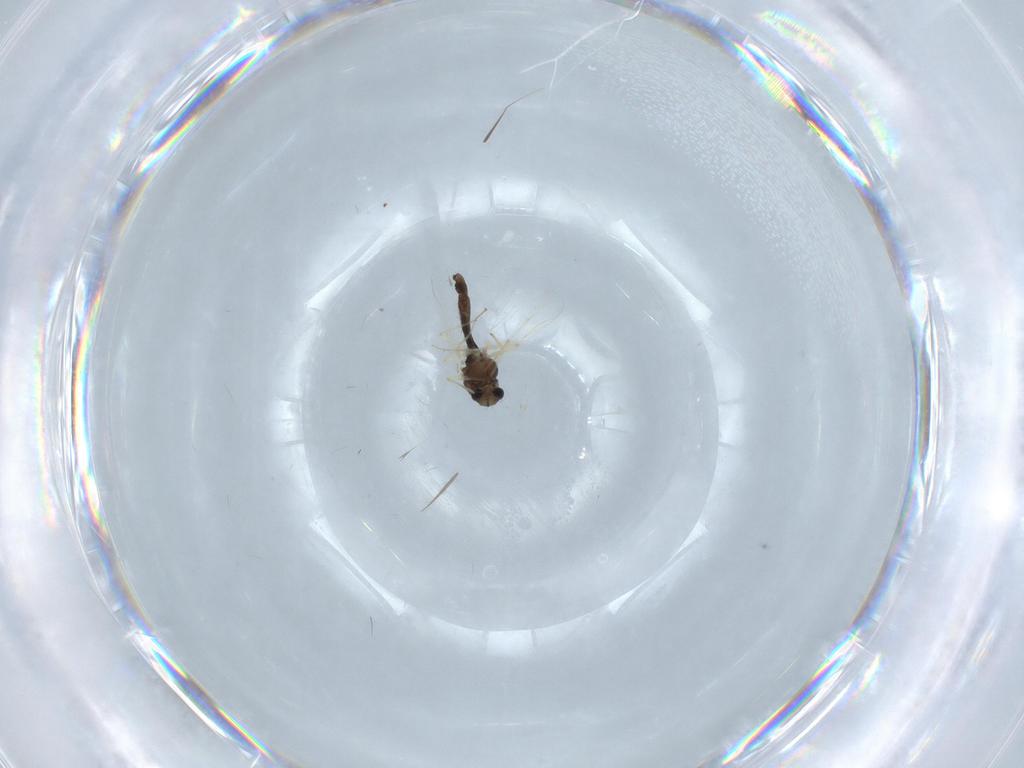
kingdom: Animalia
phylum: Arthropoda
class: Insecta
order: Diptera
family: Chironomidae
